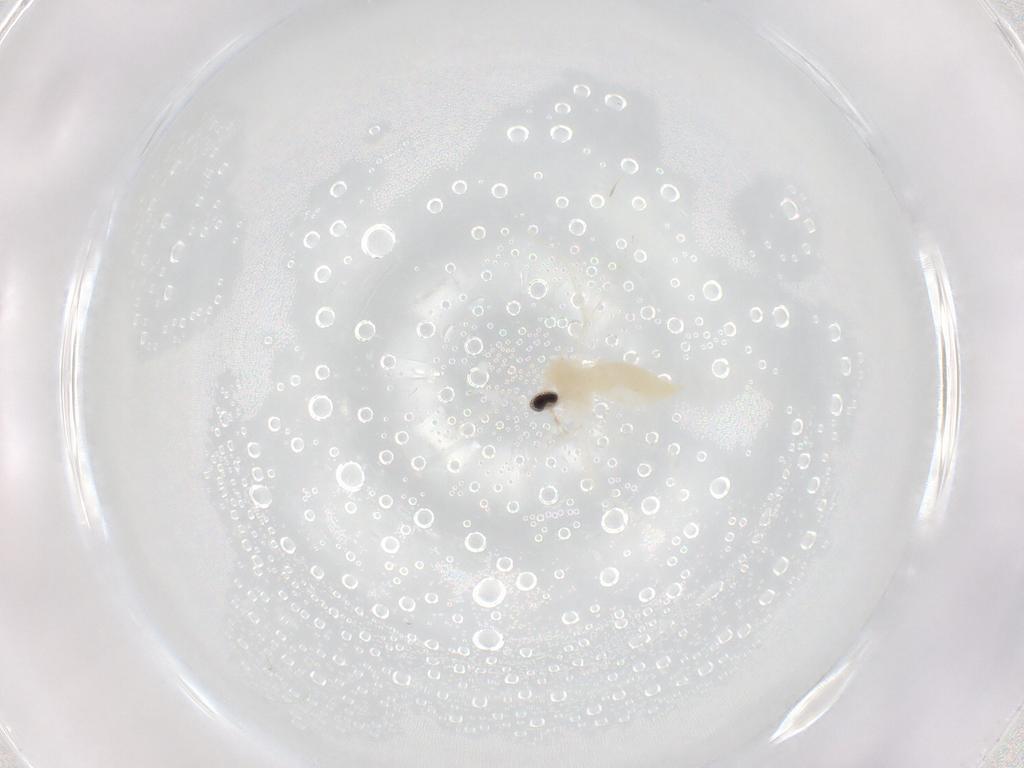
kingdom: Animalia
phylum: Arthropoda
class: Insecta
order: Diptera
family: Cecidomyiidae
